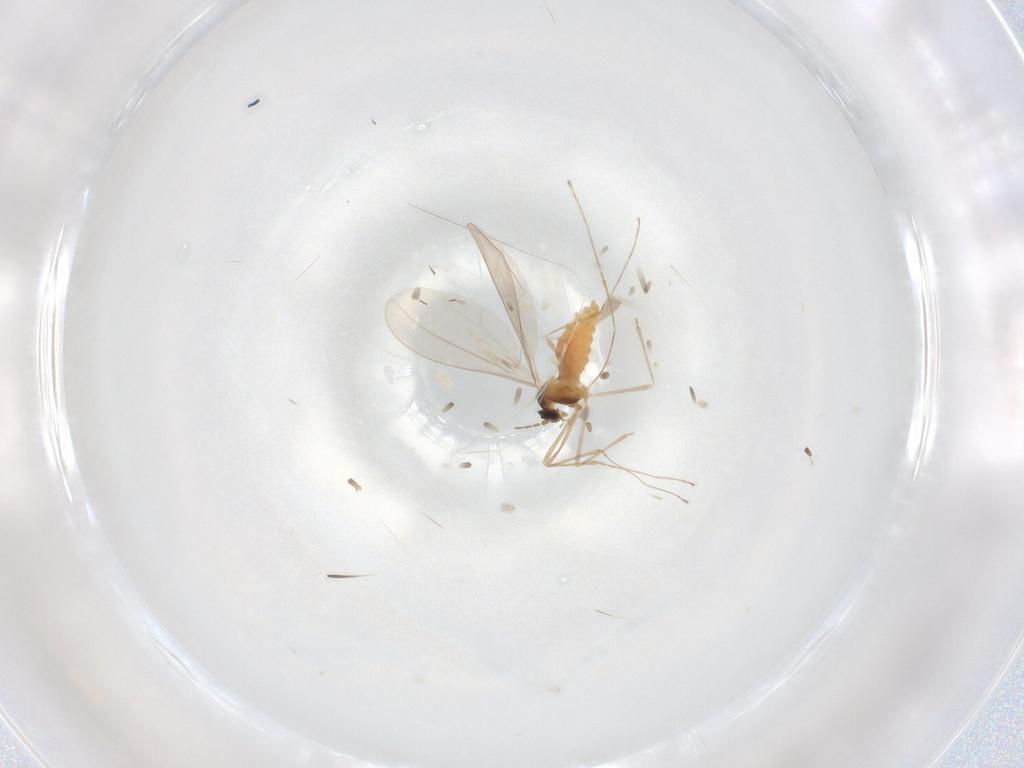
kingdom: Animalia
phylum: Arthropoda
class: Insecta
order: Diptera
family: Cecidomyiidae
